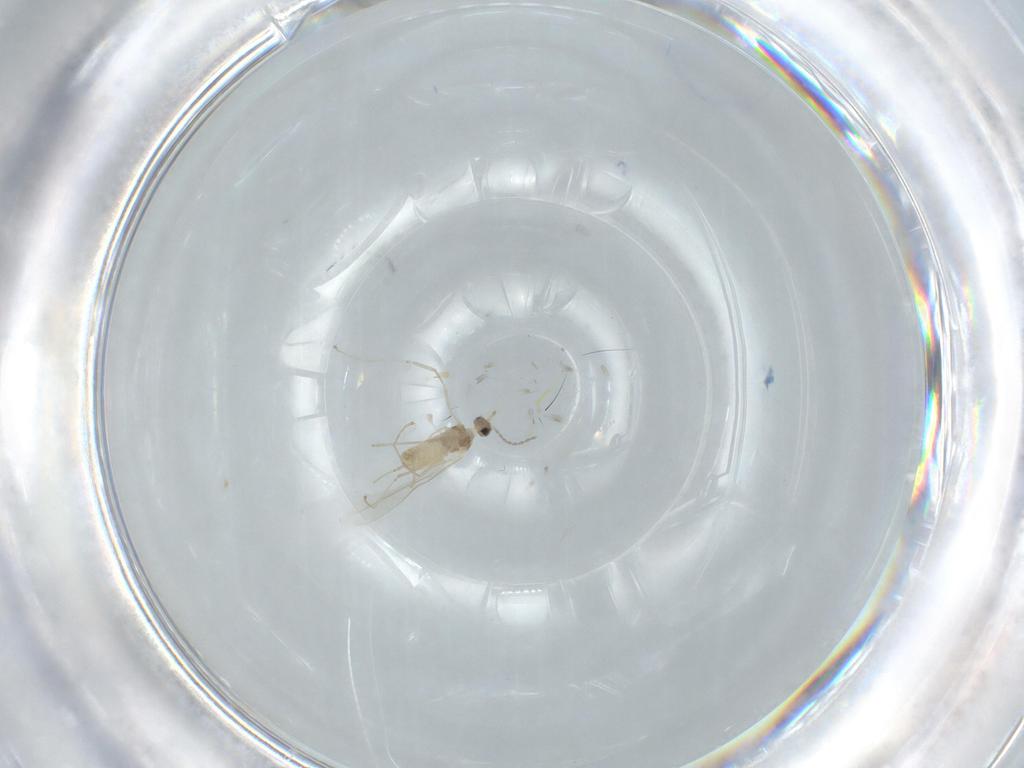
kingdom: Animalia
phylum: Arthropoda
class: Insecta
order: Diptera
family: Cecidomyiidae
